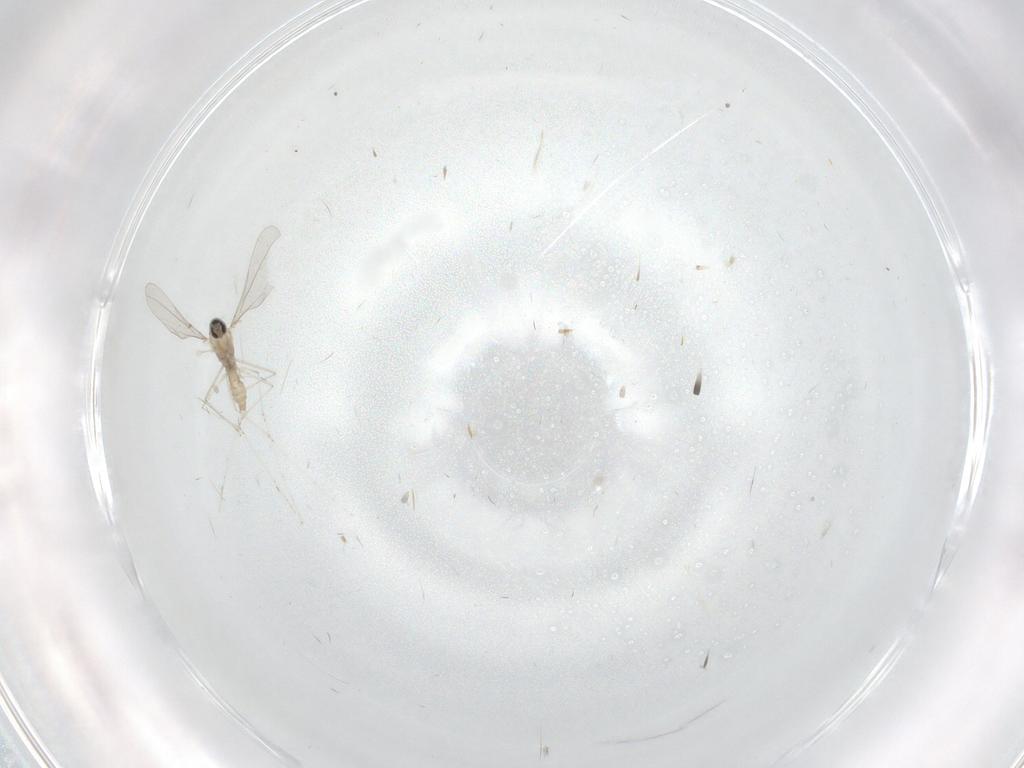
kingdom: Animalia
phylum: Arthropoda
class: Insecta
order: Diptera
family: Cecidomyiidae
